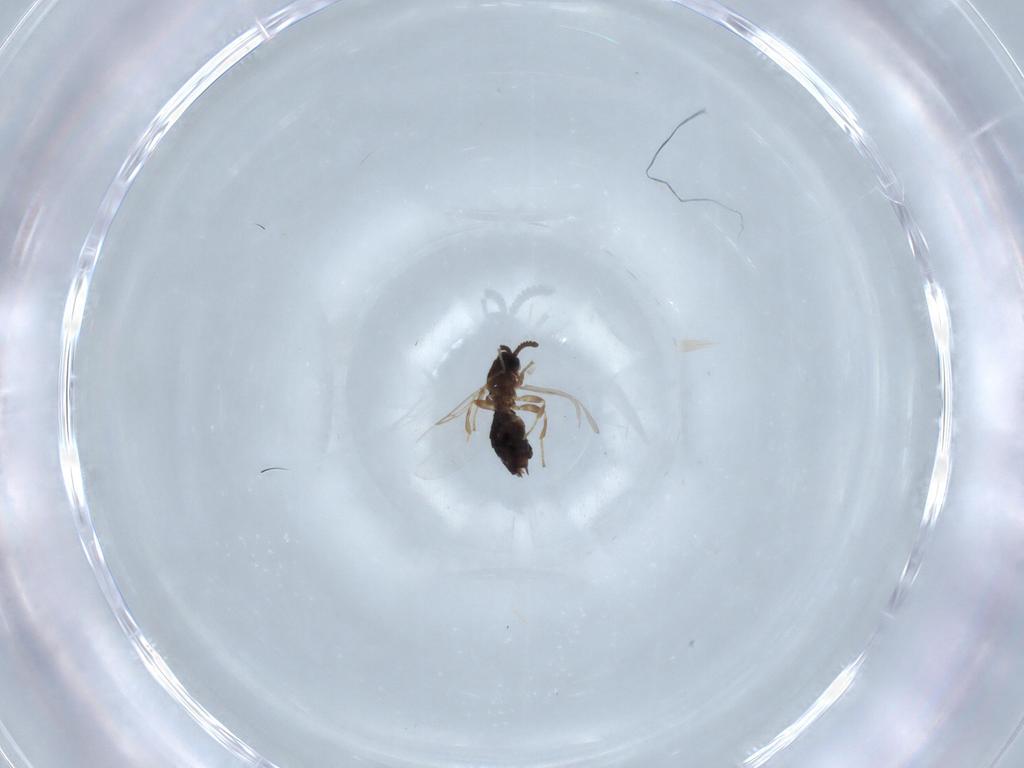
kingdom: Animalia
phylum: Arthropoda
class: Insecta
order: Diptera
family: Scatopsidae
